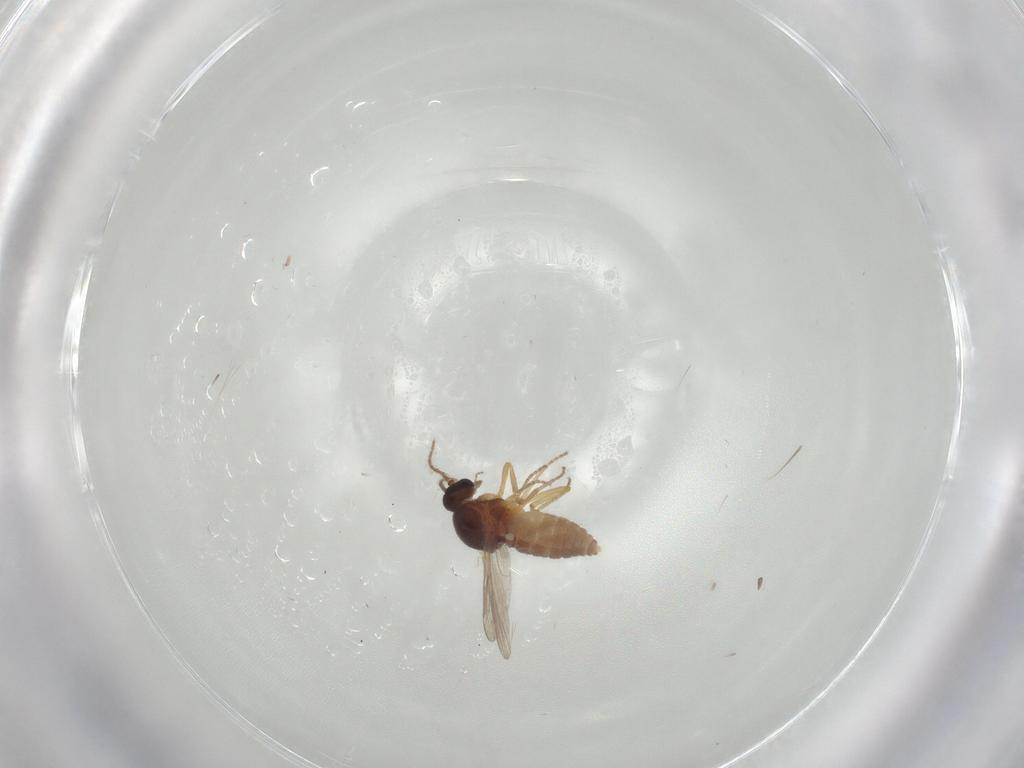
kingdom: Animalia
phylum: Arthropoda
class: Insecta
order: Diptera
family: Ceratopogonidae
